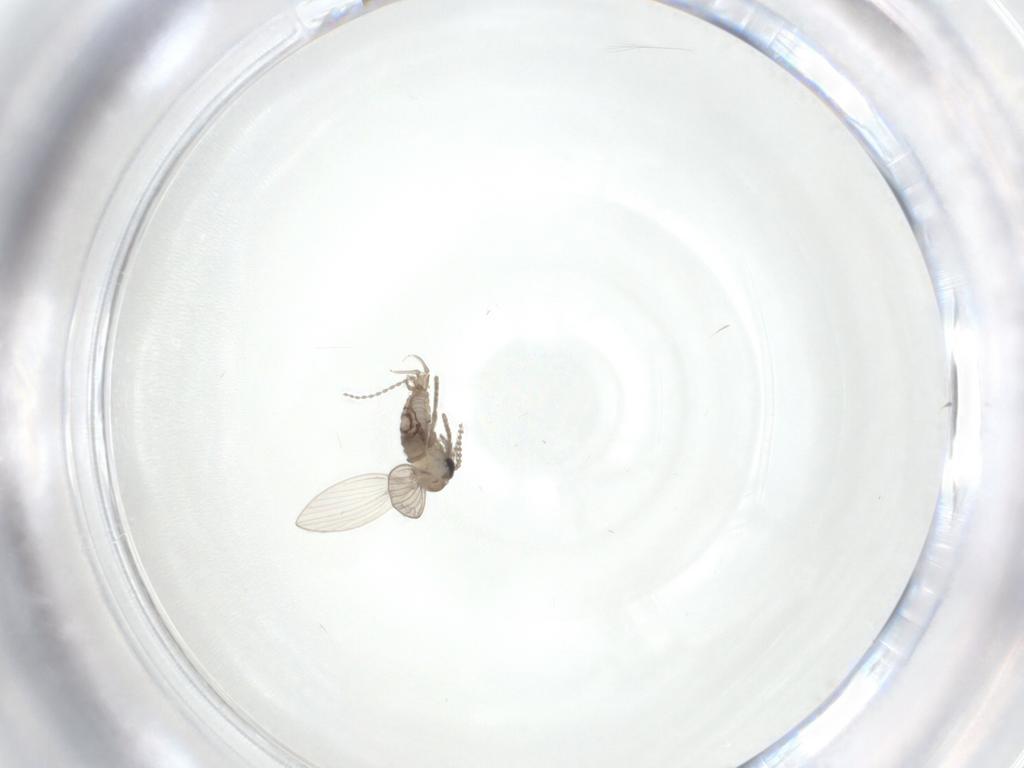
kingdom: Animalia
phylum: Arthropoda
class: Insecta
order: Diptera
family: Psychodidae
